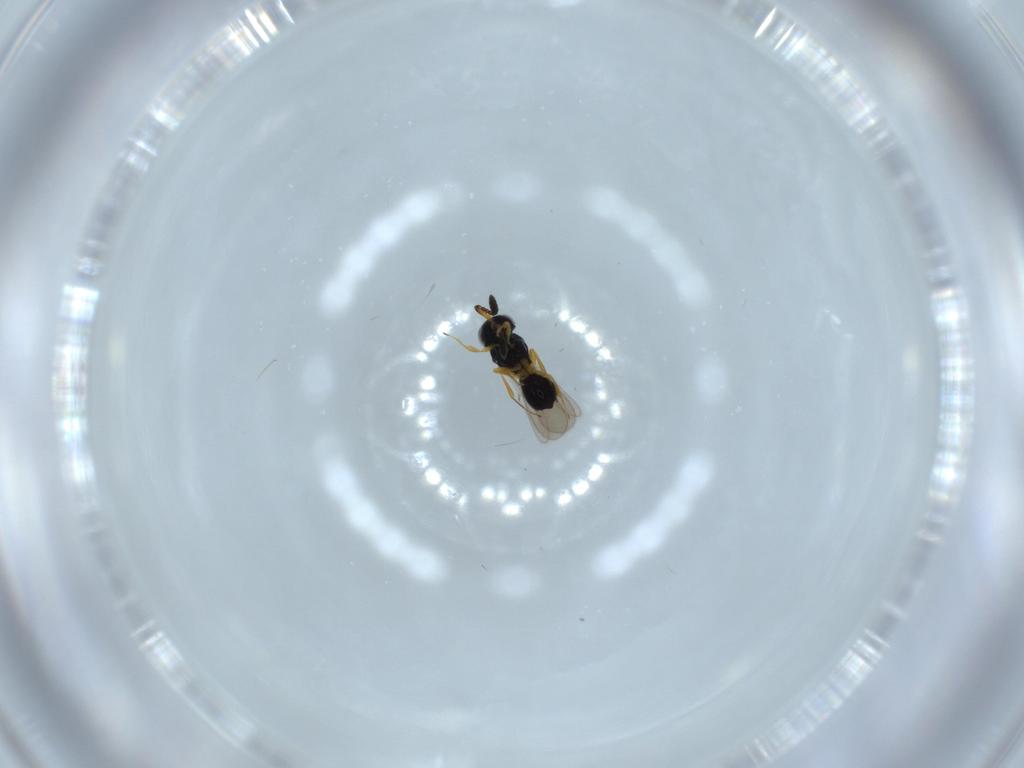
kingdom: Animalia
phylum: Arthropoda
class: Insecta
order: Hymenoptera
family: Scelionidae
